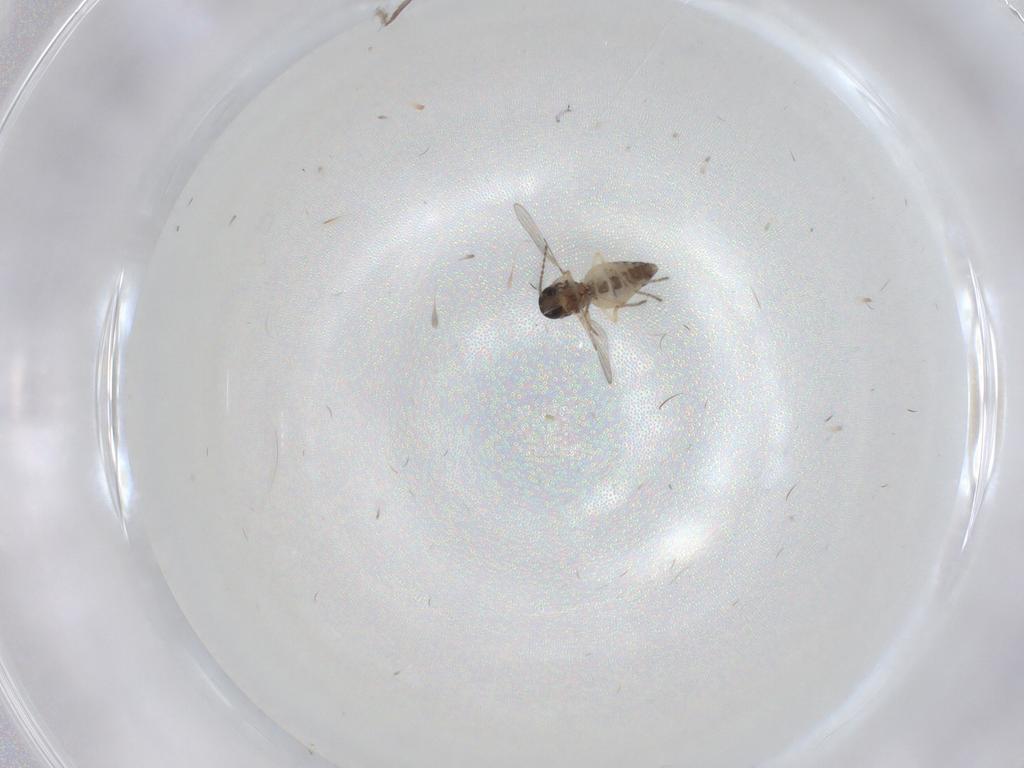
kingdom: Animalia
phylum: Arthropoda
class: Insecta
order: Diptera
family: Ceratopogonidae
